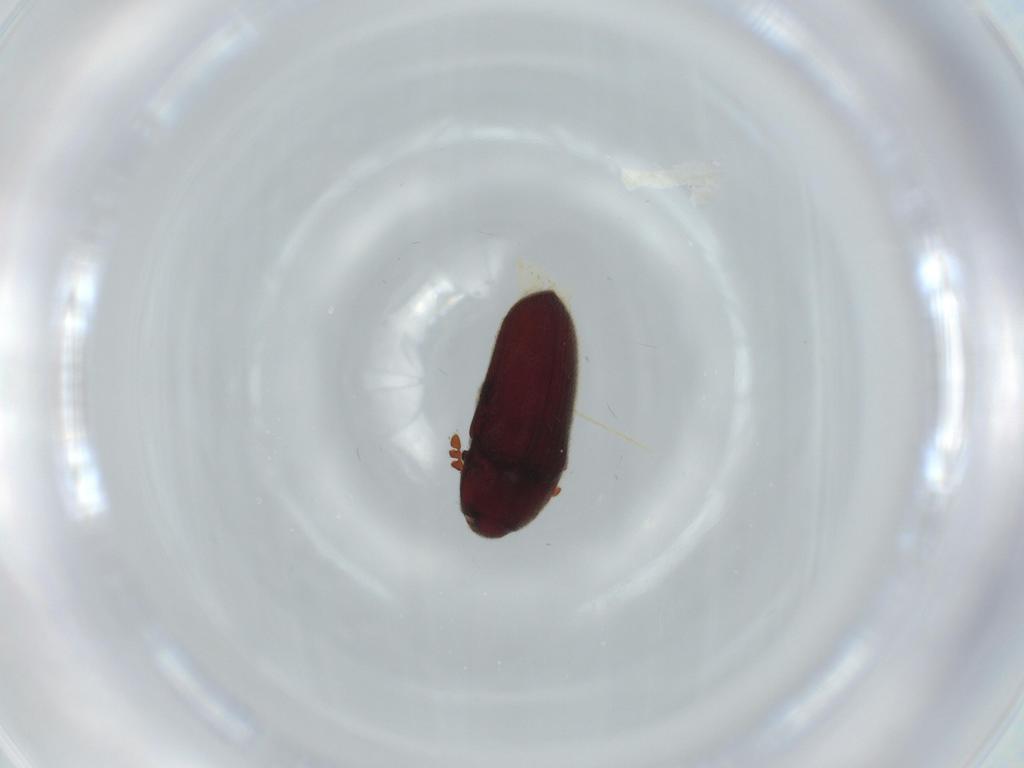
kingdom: Animalia
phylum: Arthropoda
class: Insecta
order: Coleoptera
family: Throscidae
